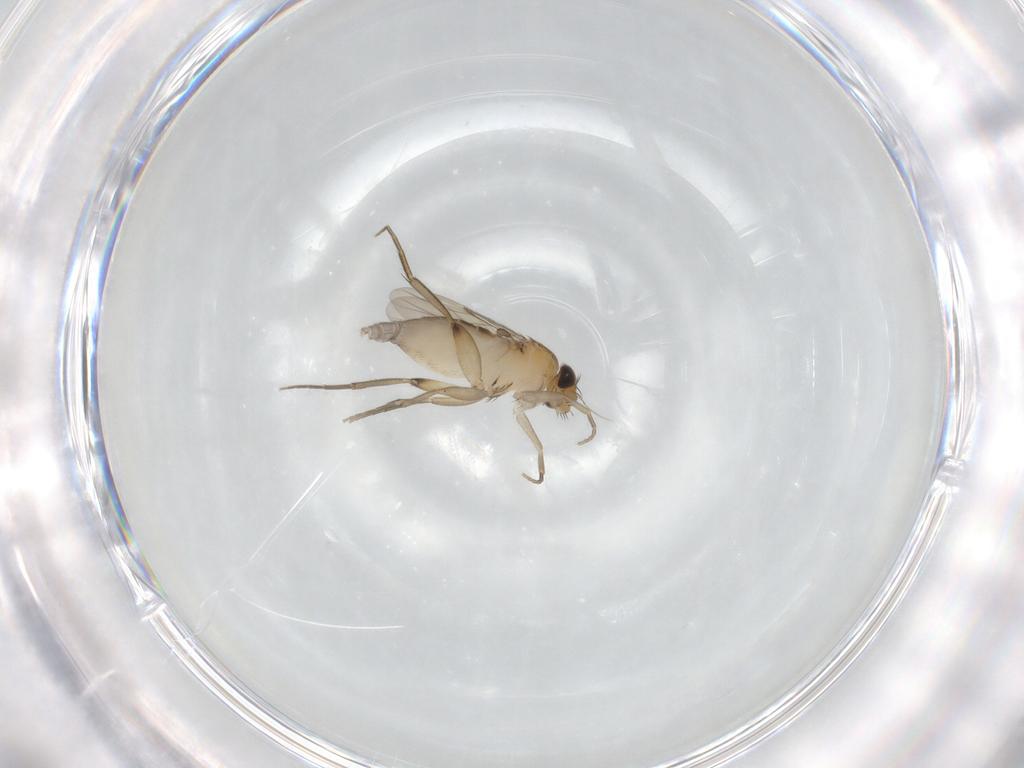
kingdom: Animalia
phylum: Arthropoda
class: Insecta
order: Diptera
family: Phoridae
